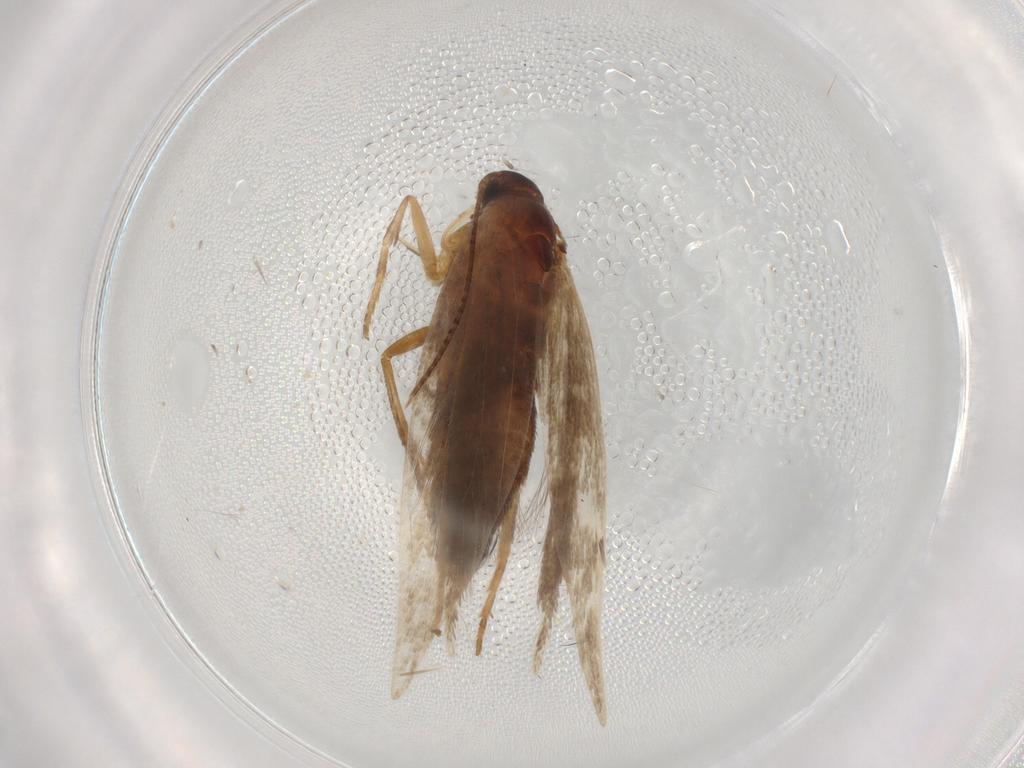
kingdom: Animalia
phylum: Arthropoda
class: Insecta
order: Lepidoptera
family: Gelechiidae
